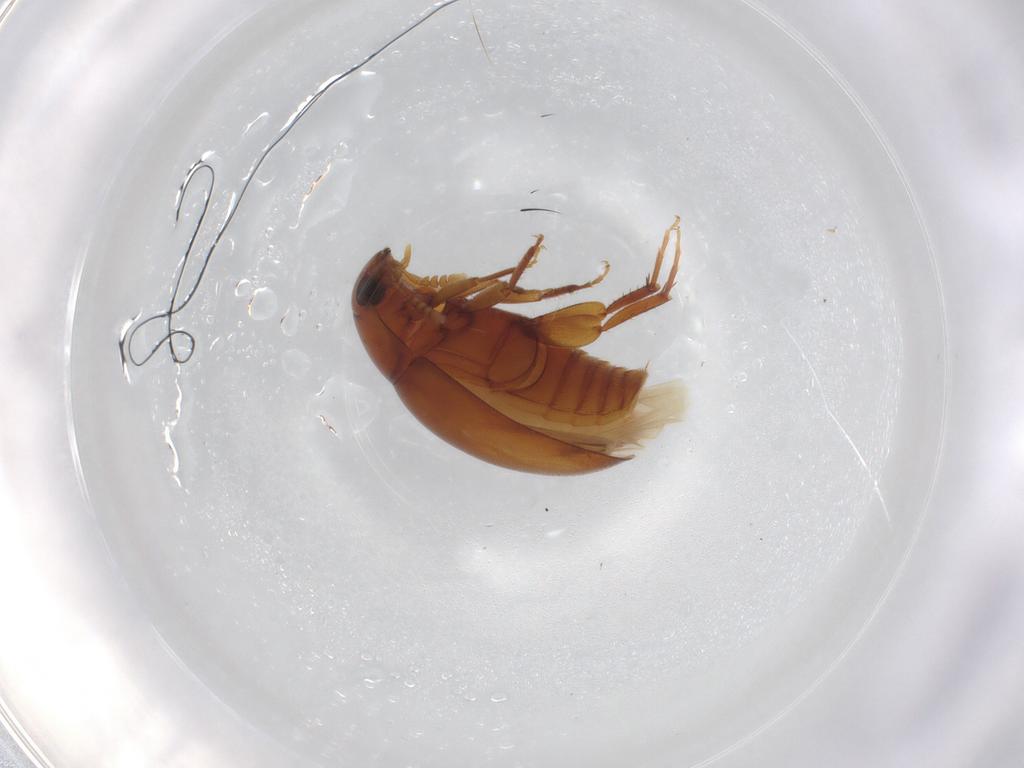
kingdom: Animalia
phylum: Arthropoda
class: Insecta
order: Coleoptera
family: Phalacridae
